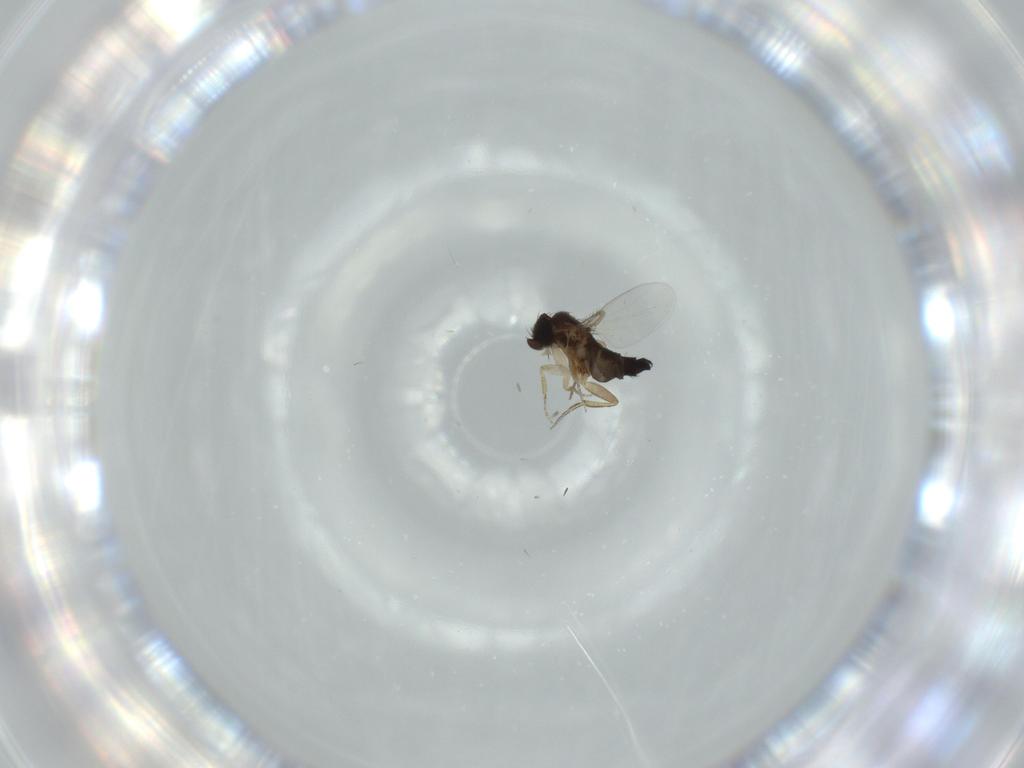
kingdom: Animalia
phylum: Arthropoda
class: Insecta
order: Diptera
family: Phoridae
